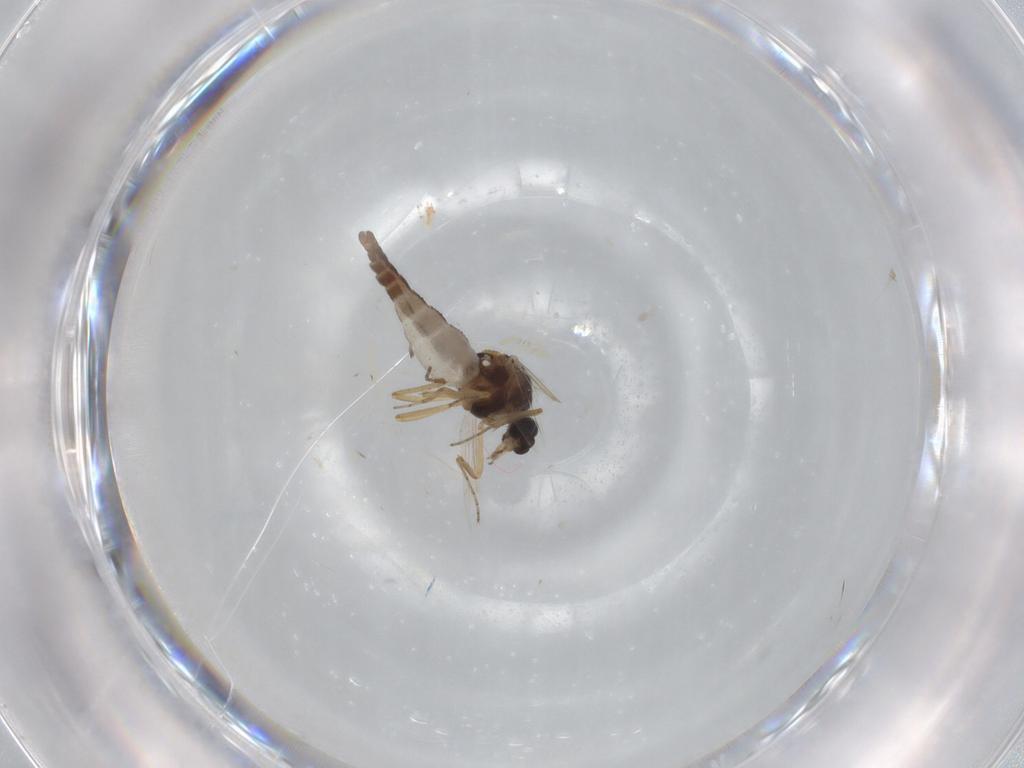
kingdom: Animalia
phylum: Arthropoda
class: Insecta
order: Diptera
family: Ceratopogonidae
